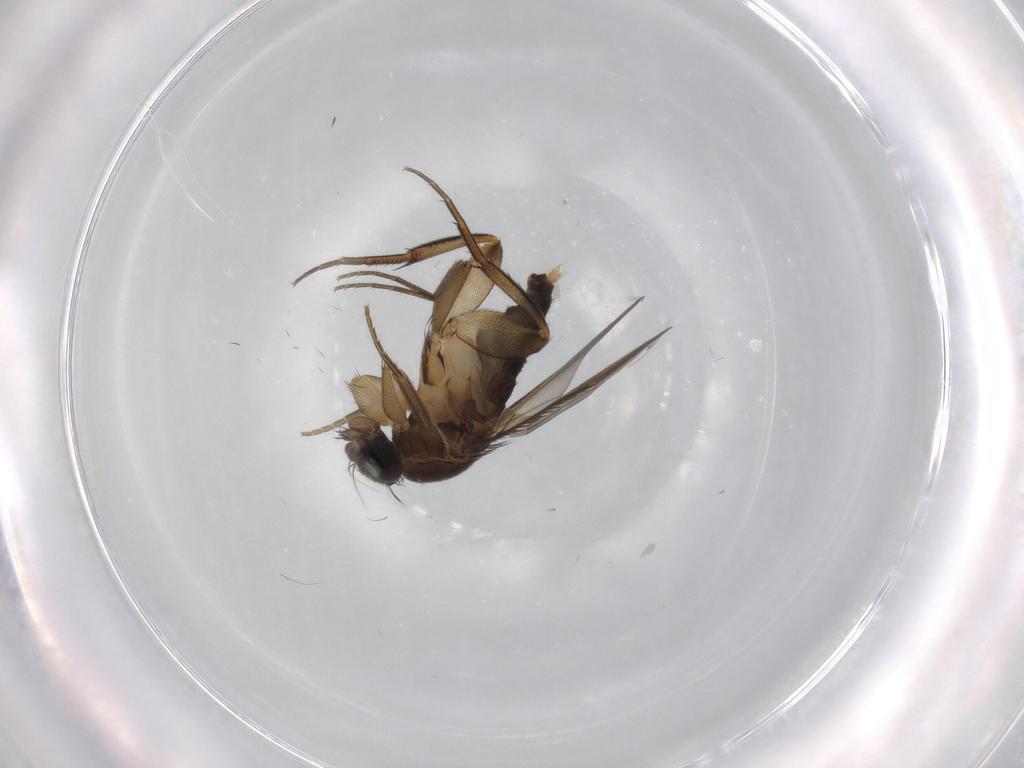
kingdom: Animalia
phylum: Arthropoda
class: Insecta
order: Diptera
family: Phoridae
